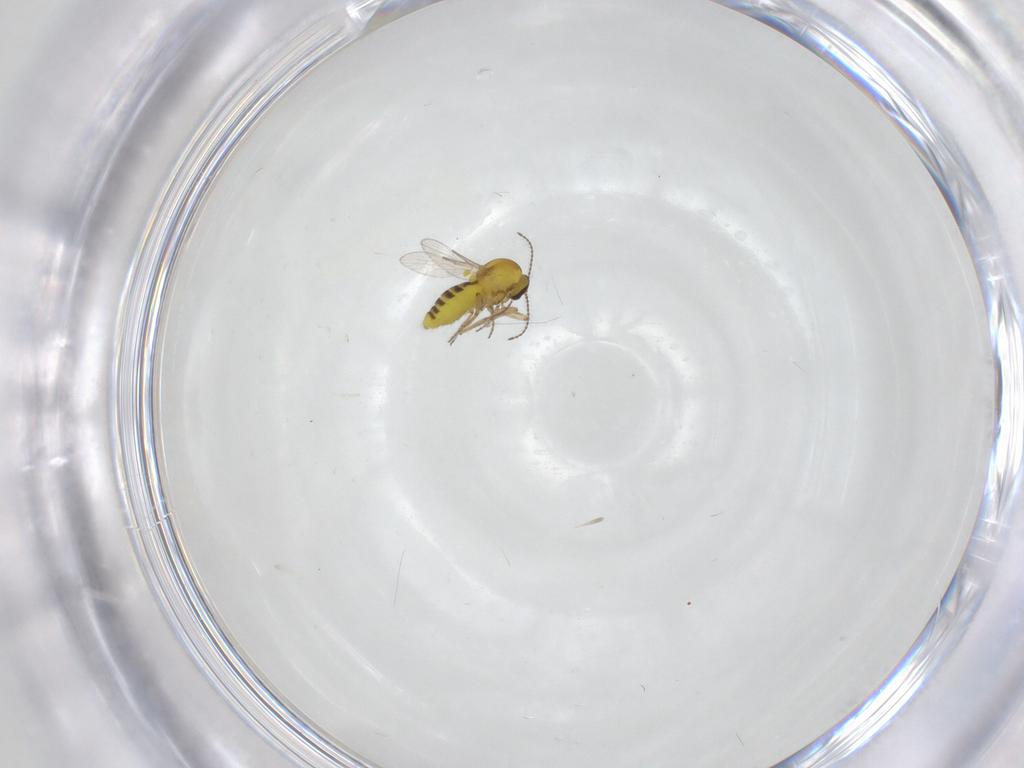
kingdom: Animalia
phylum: Arthropoda
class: Insecta
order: Diptera
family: Ceratopogonidae
